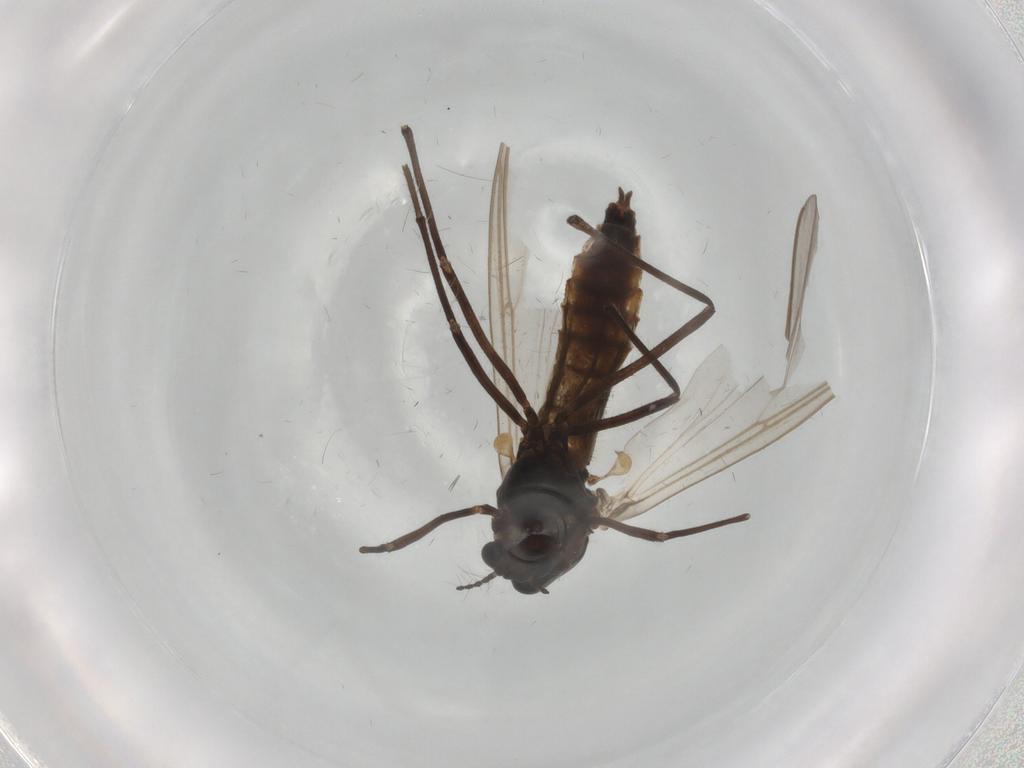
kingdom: Animalia
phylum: Arthropoda
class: Insecta
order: Diptera
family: Chironomidae
